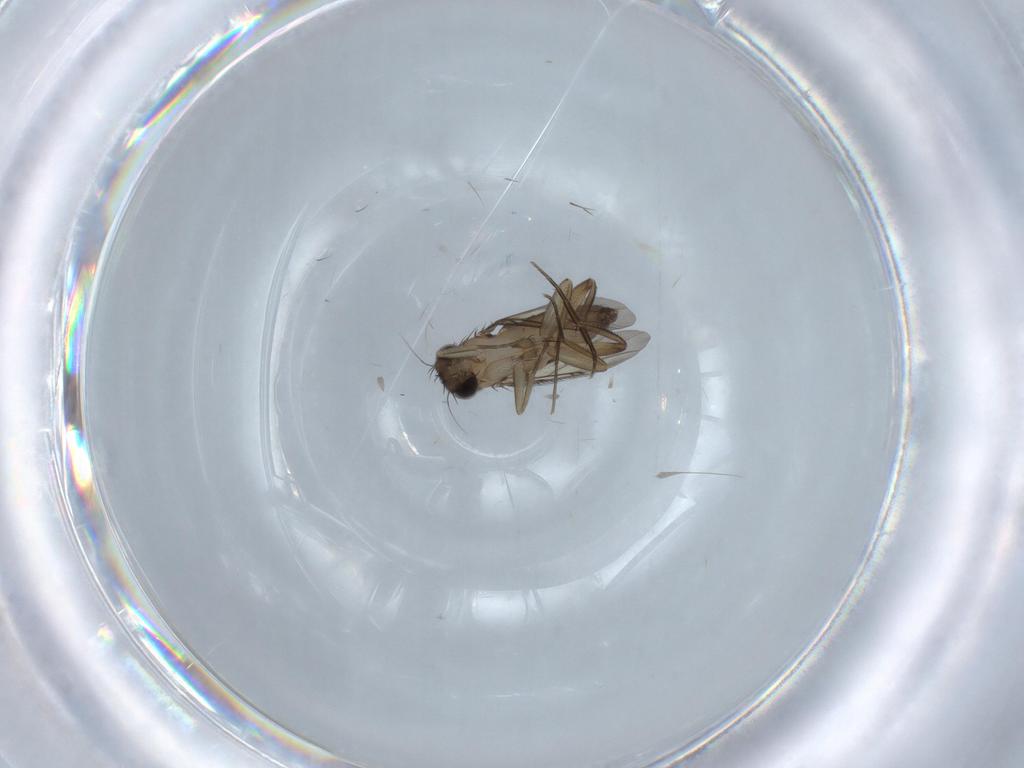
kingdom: Animalia
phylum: Arthropoda
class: Insecta
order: Diptera
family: Phoridae
